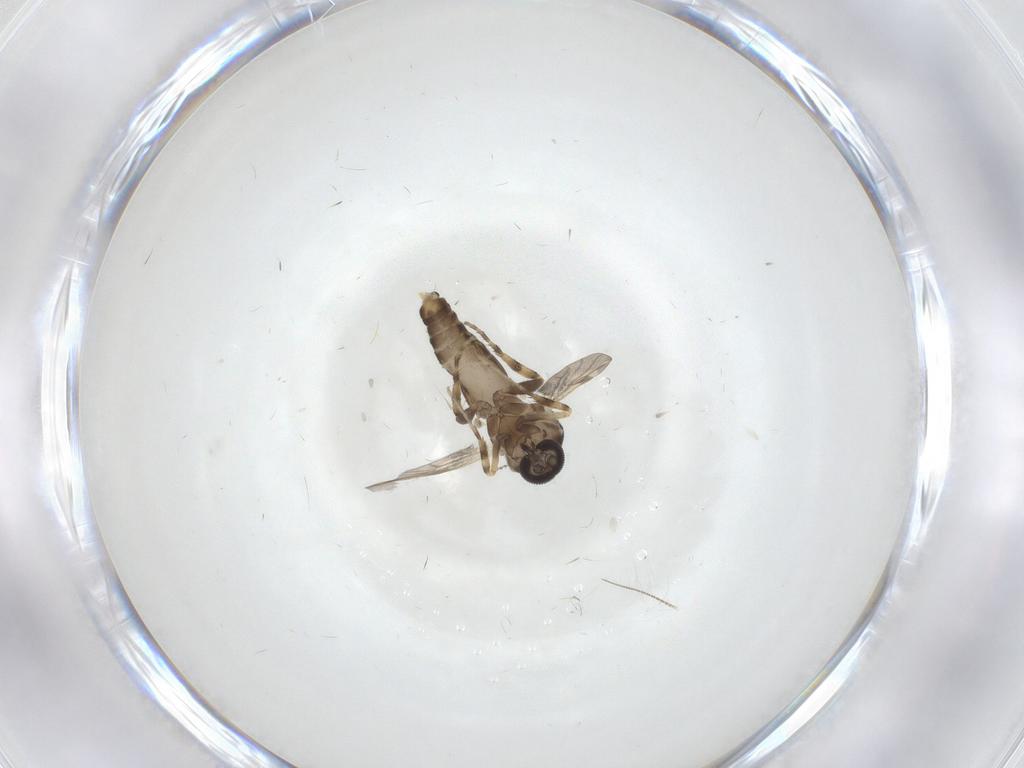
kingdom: Animalia
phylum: Arthropoda
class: Insecta
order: Diptera
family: Ceratopogonidae
